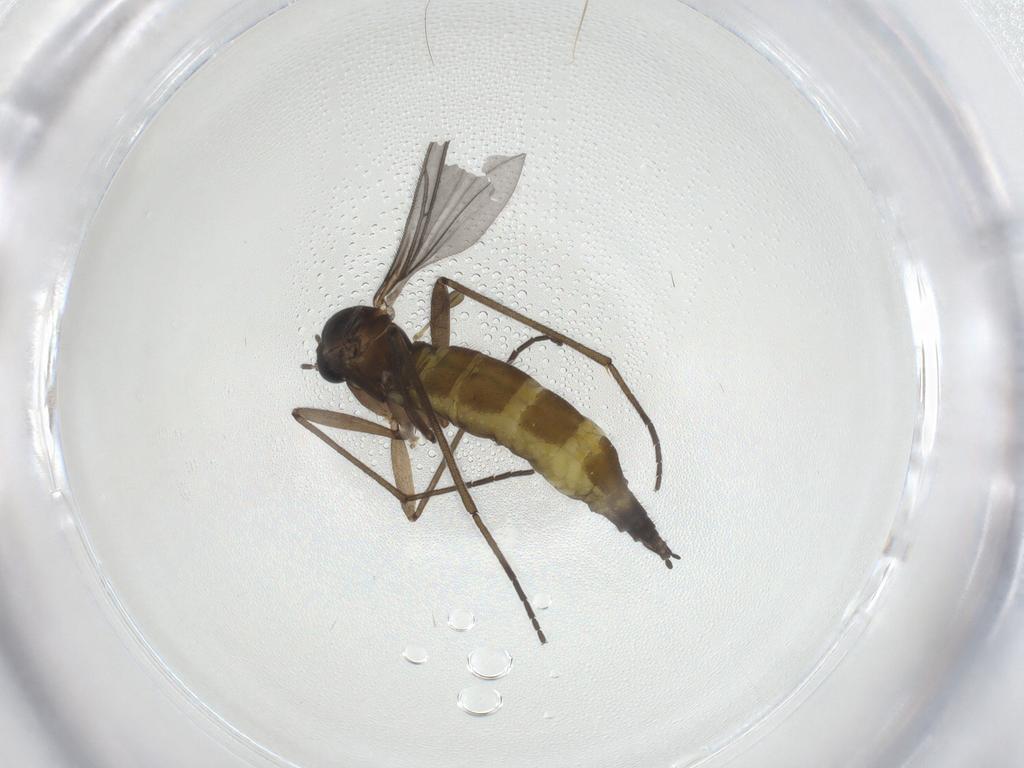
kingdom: Animalia
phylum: Arthropoda
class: Insecta
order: Diptera
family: Sciaridae
